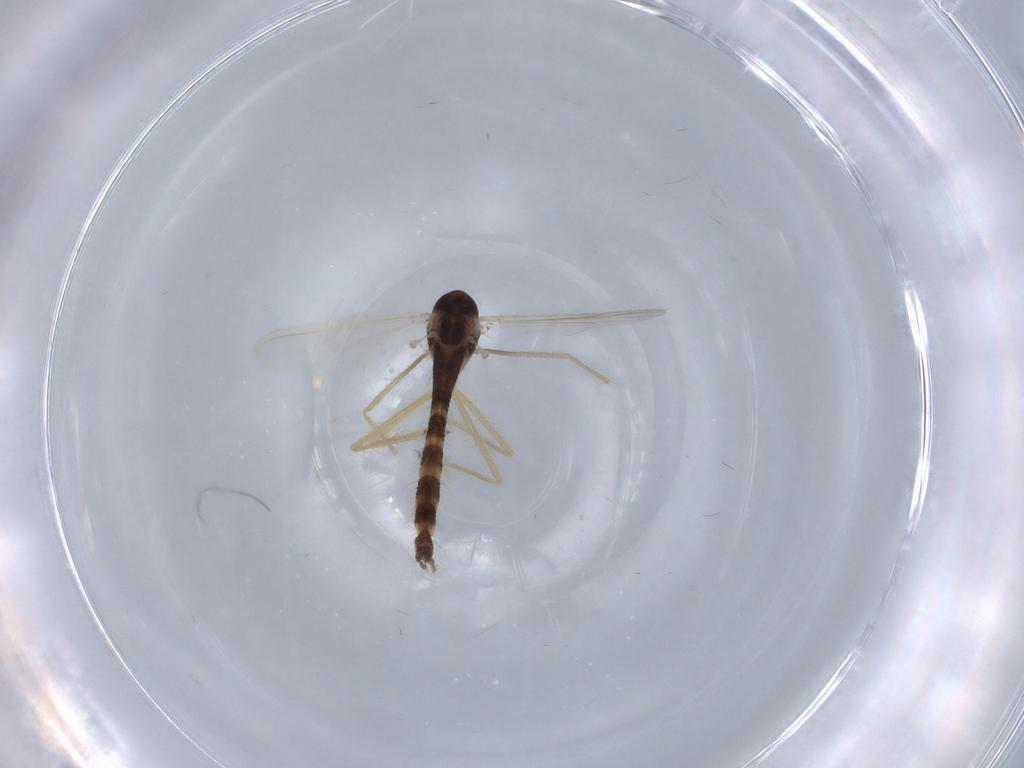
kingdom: Animalia
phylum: Arthropoda
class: Insecta
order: Diptera
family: Chironomidae
